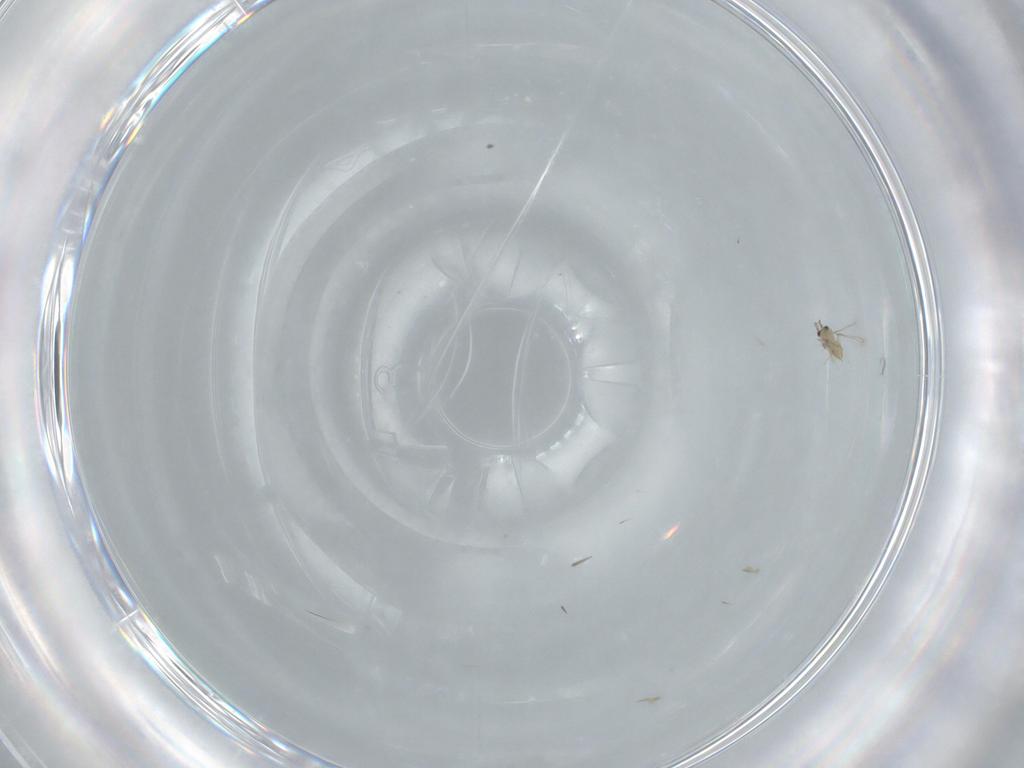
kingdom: Animalia
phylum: Arthropoda
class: Insecta
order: Hymenoptera
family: Mymaridae
